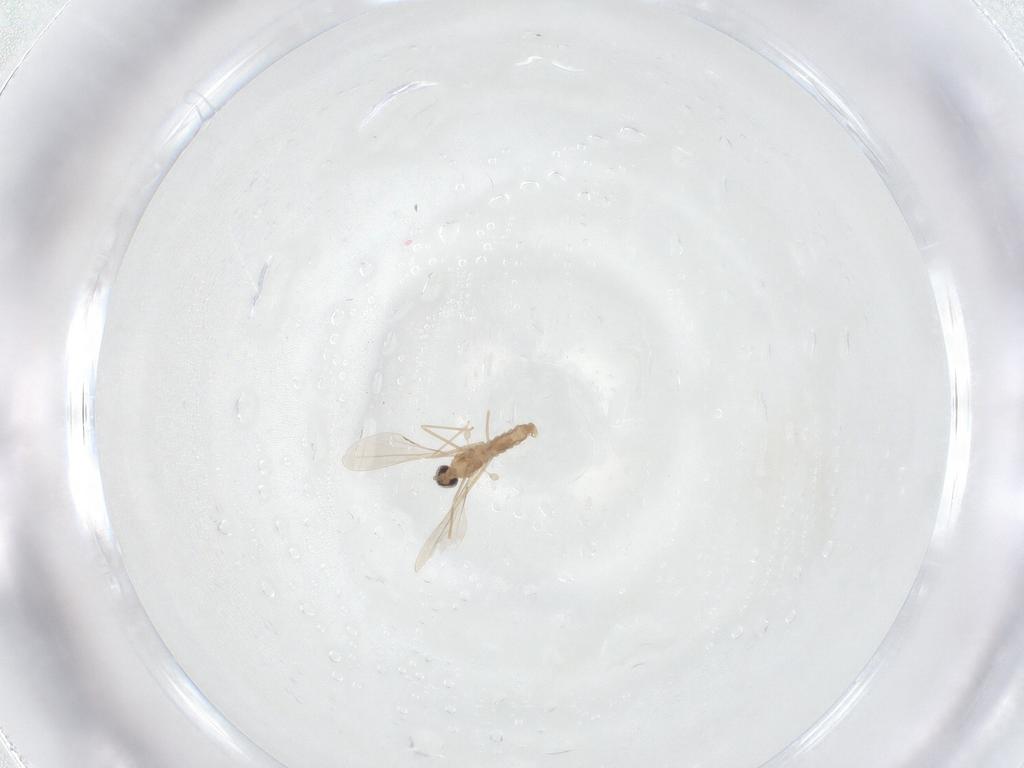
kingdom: Animalia
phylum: Arthropoda
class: Insecta
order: Diptera
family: Cecidomyiidae
